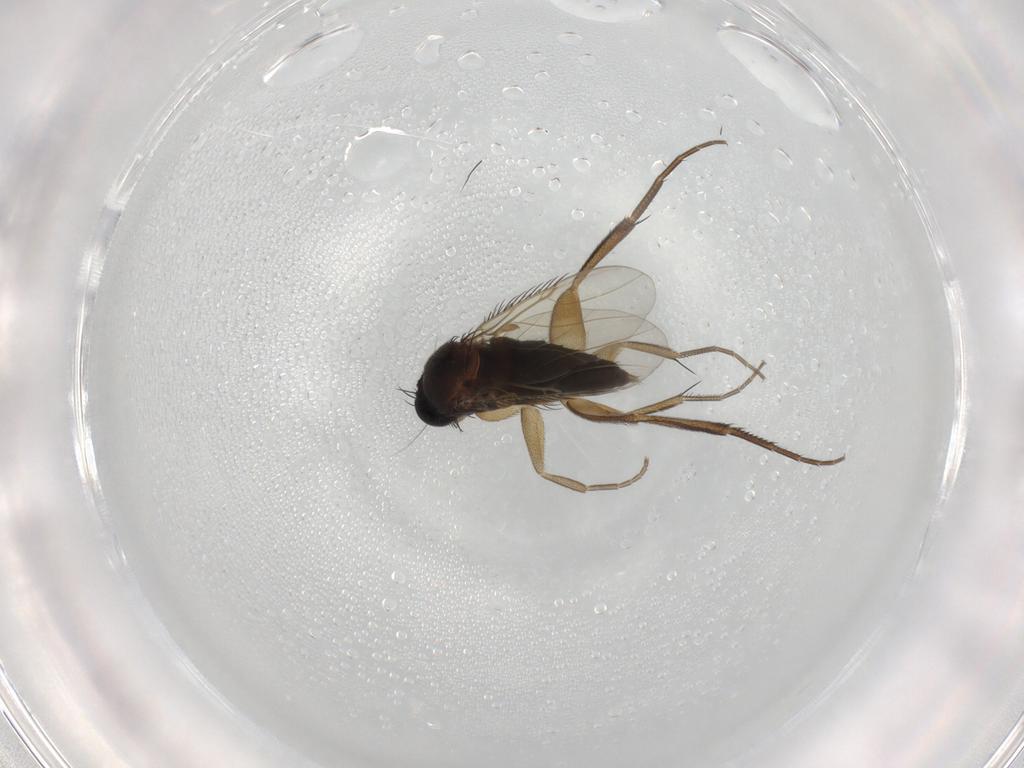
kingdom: Animalia
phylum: Arthropoda
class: Insecta
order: Diptera
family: Phoridae
